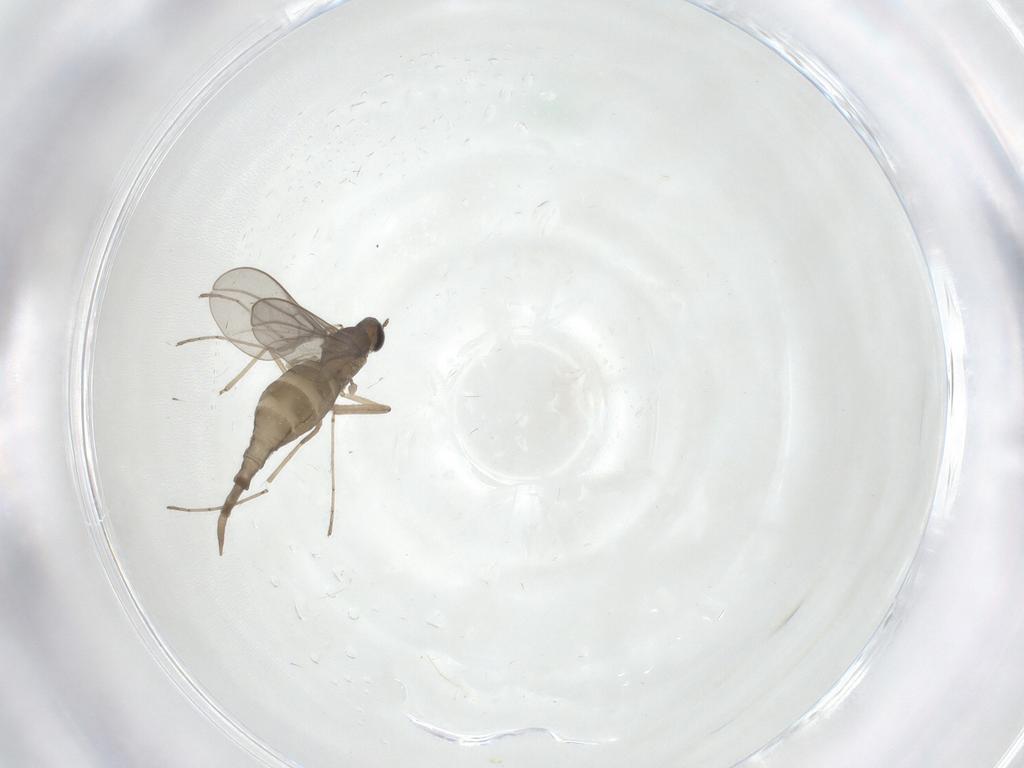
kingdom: Animalia
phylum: Arthropoda
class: Insecta
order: Diptera
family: Cecidomyiidae
